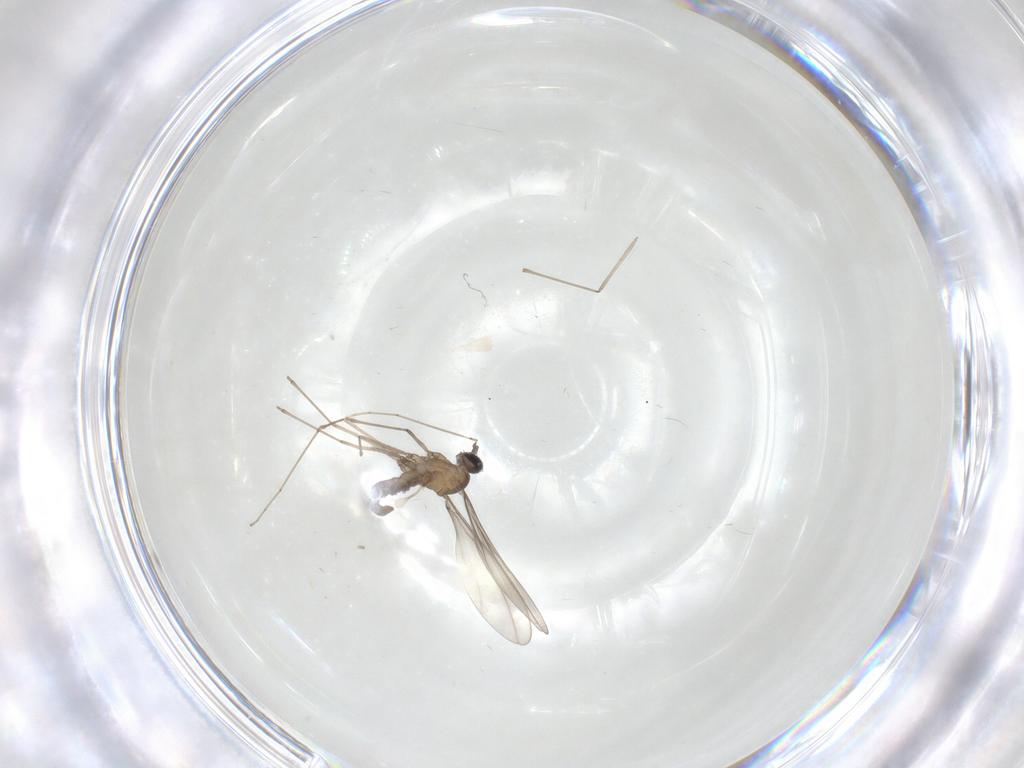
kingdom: Animalia
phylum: Arthropoda
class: Insecta
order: Diptera
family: Cecidomyiidae
